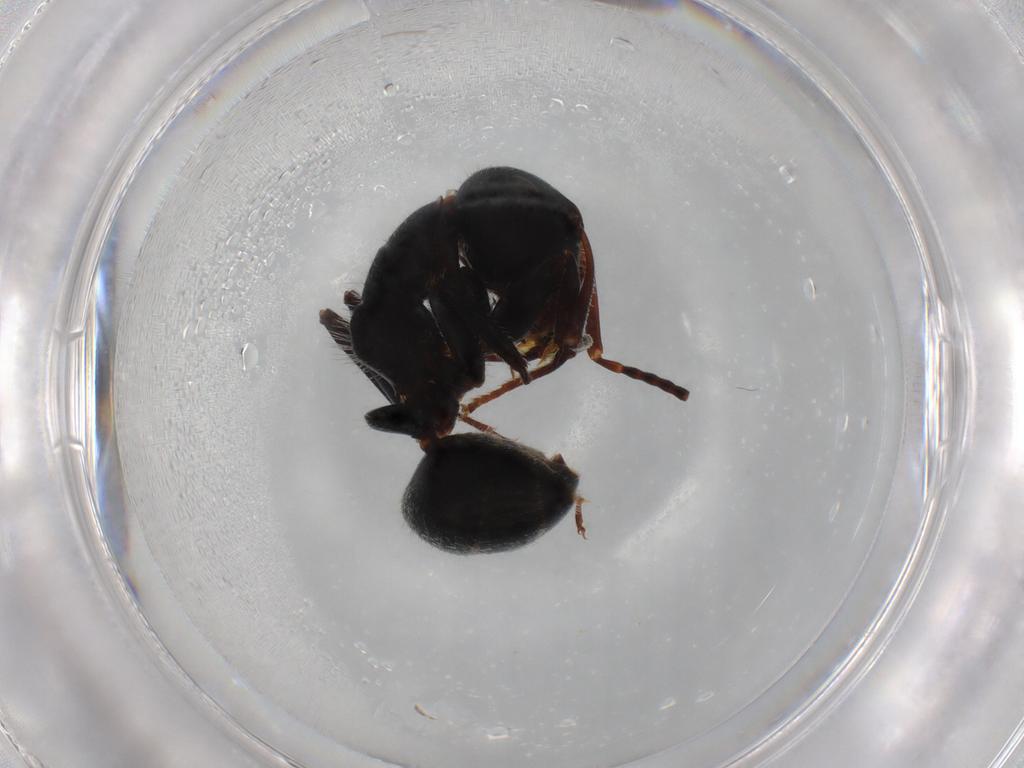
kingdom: Animalia
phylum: Arthropoda
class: Insecta
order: Hymenoptera
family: Formicidae
